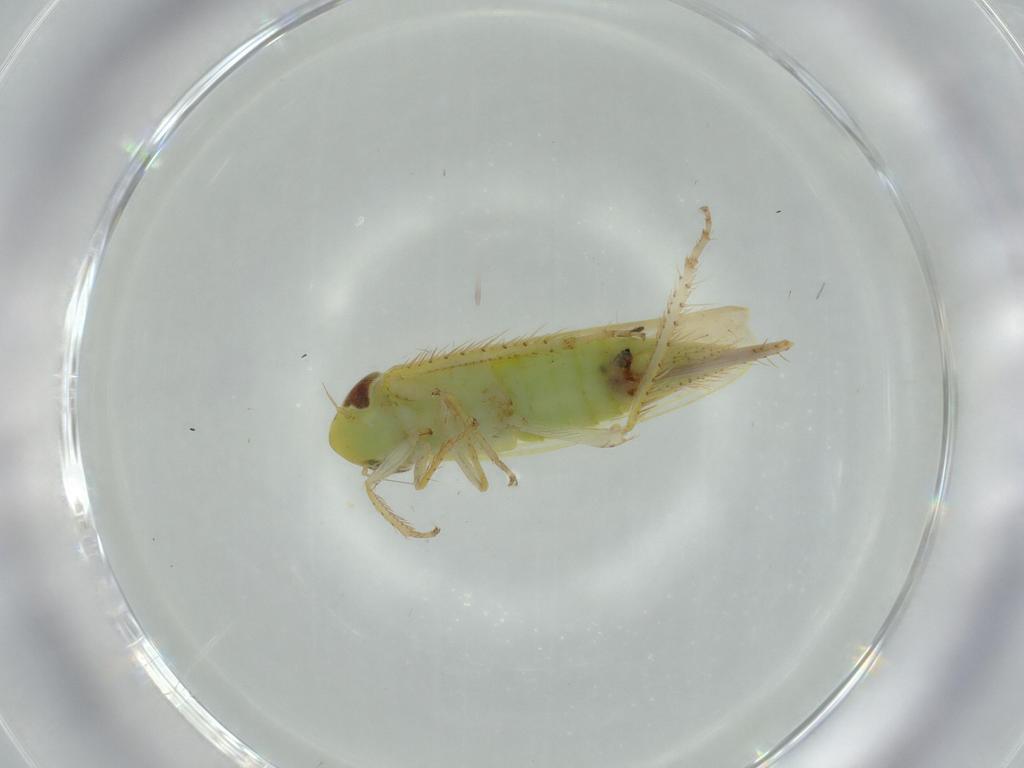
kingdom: Animalia
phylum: Arthropoda
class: Insecta
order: Hemiptera
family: Cicadellidae
